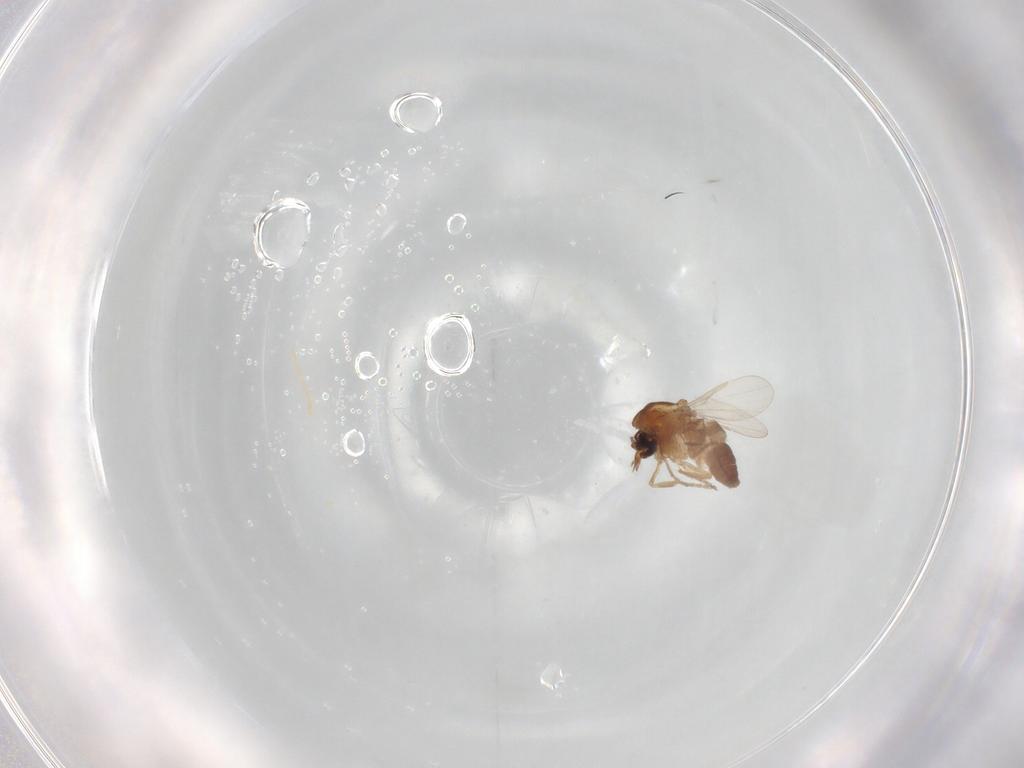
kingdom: Animalia
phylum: Arthropoda
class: Insecta
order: Diptera
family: Ceratopogonidae
